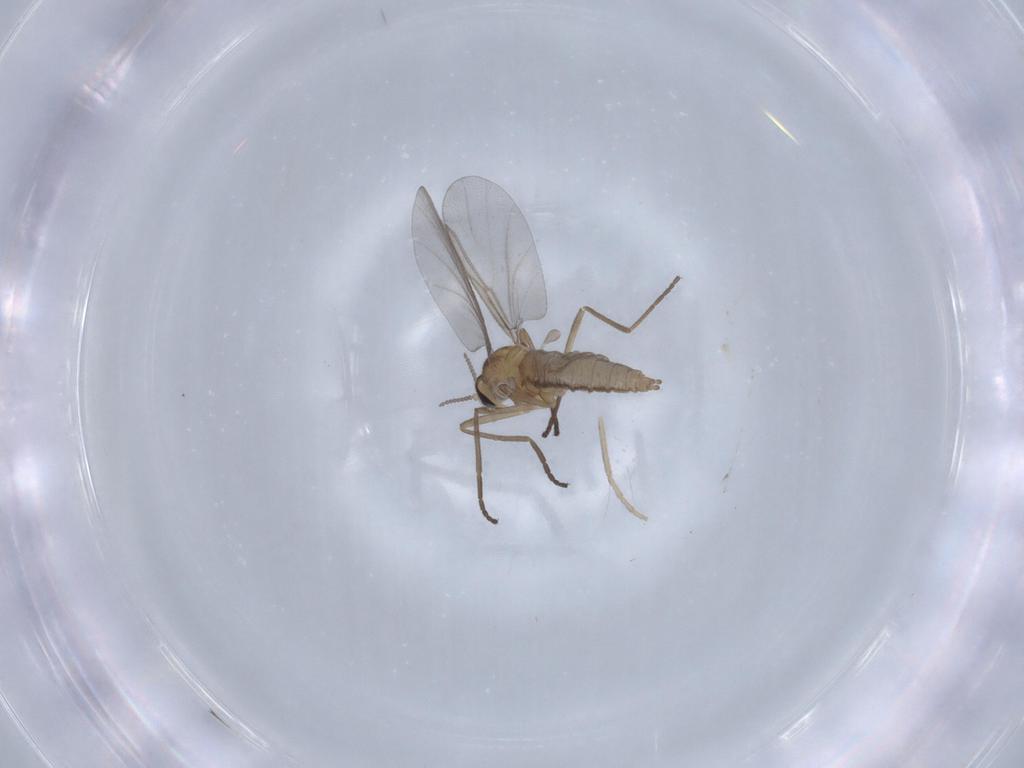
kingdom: Animalia
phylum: Arthropoda
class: Insecta
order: Diptera
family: Cecidomyiidae
